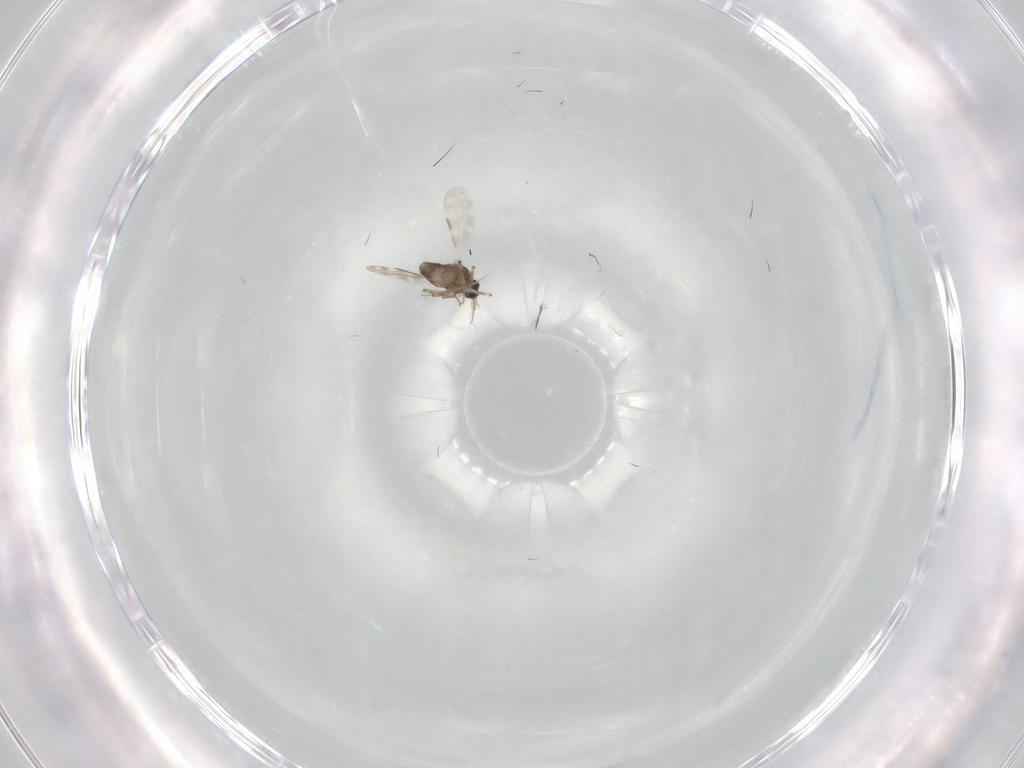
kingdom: Animalia
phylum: Arthropoda
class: Insecta
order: Diptera
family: Ceratopogonidae
